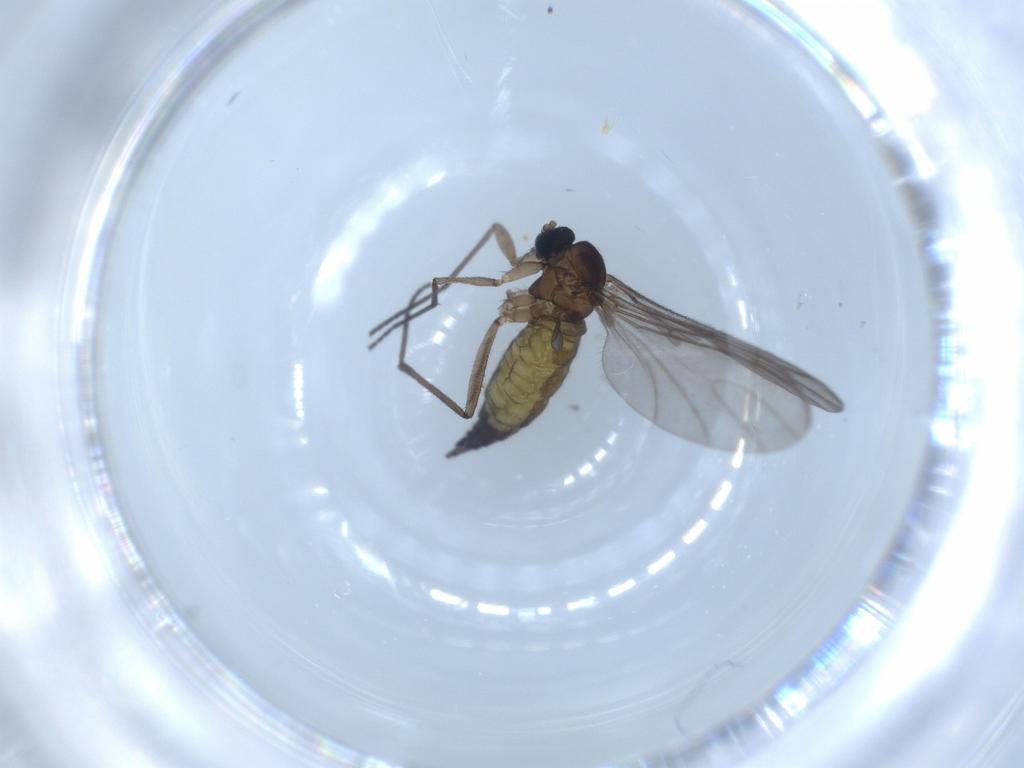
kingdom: Animalia
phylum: Arthropoda
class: Insecta
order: Diptera
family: Sciaridae
